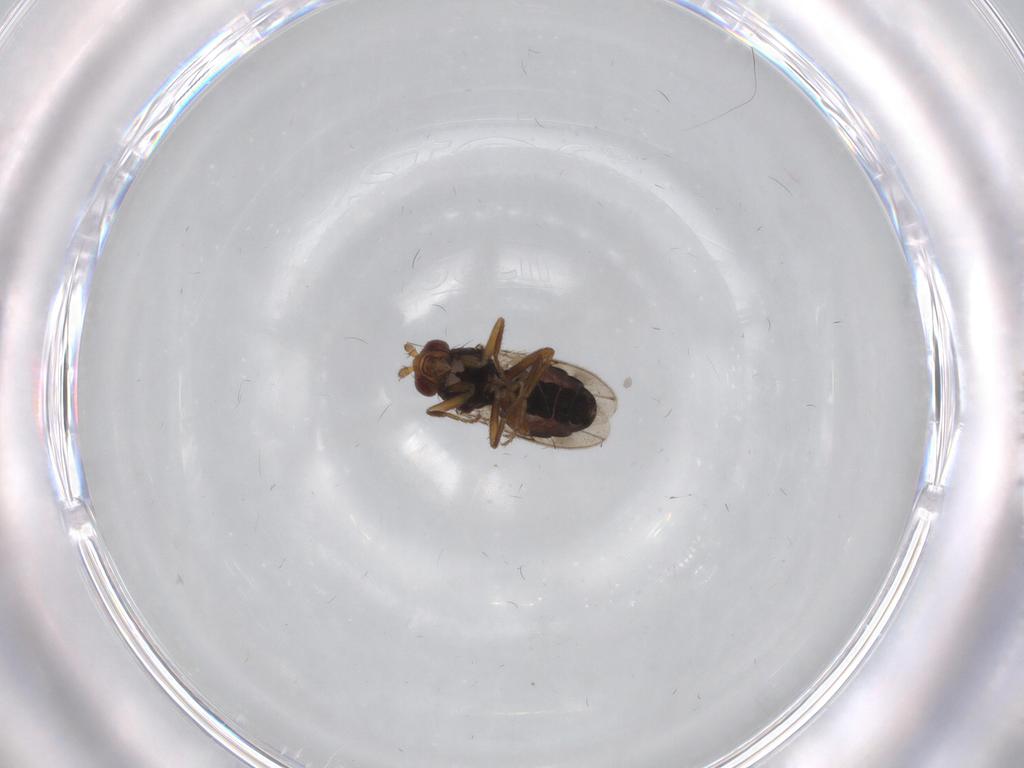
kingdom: Animalia
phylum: Arthropoda
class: Insecta
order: Diptera
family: Sphaeroceridae
